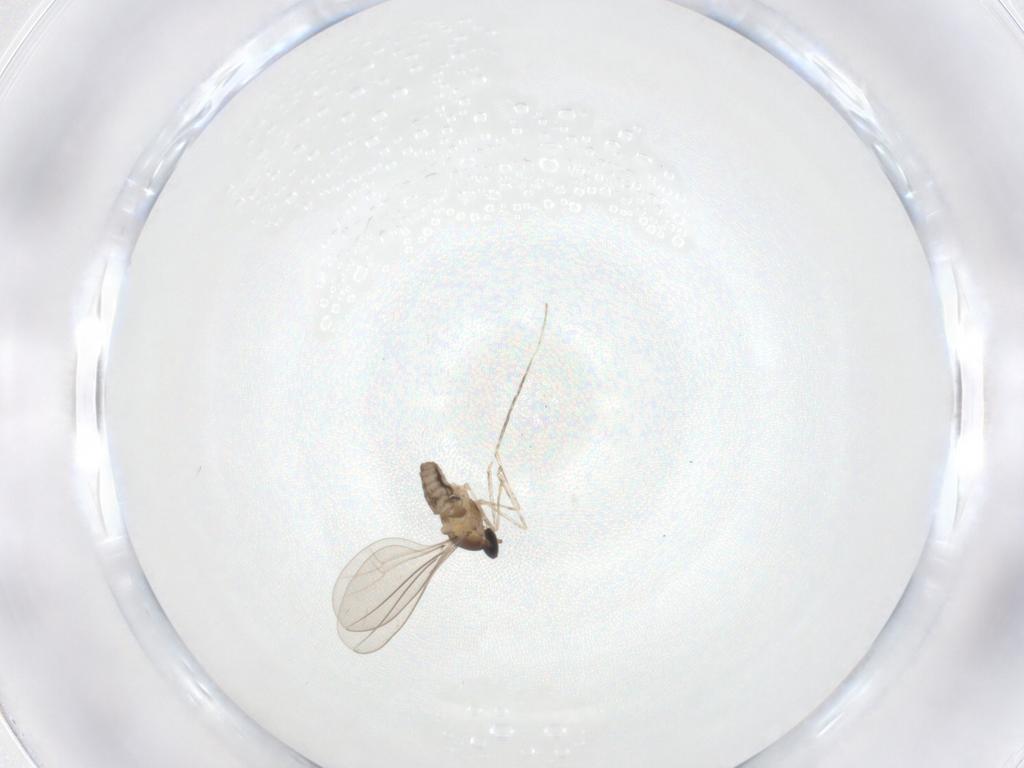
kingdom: Animalia
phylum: Arthropoda
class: Insecta
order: Diptera
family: Cecidomyiidae
